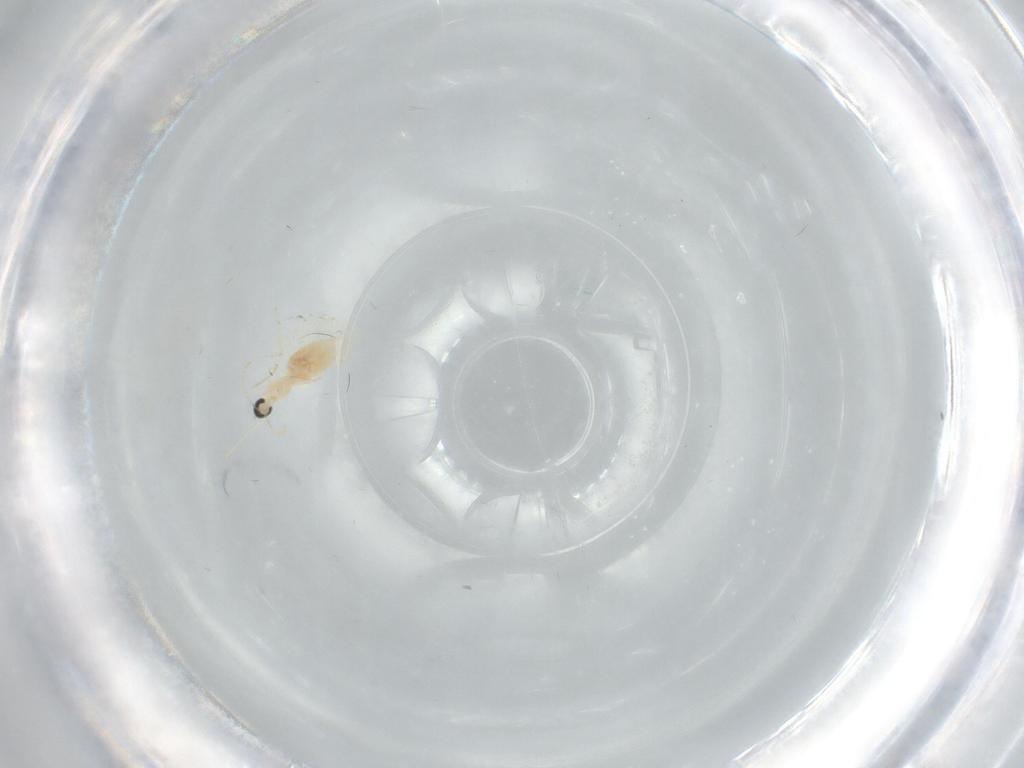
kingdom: Animalia
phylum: Arthropoda
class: Insecta
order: Diptera
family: Cecidomyiidae
